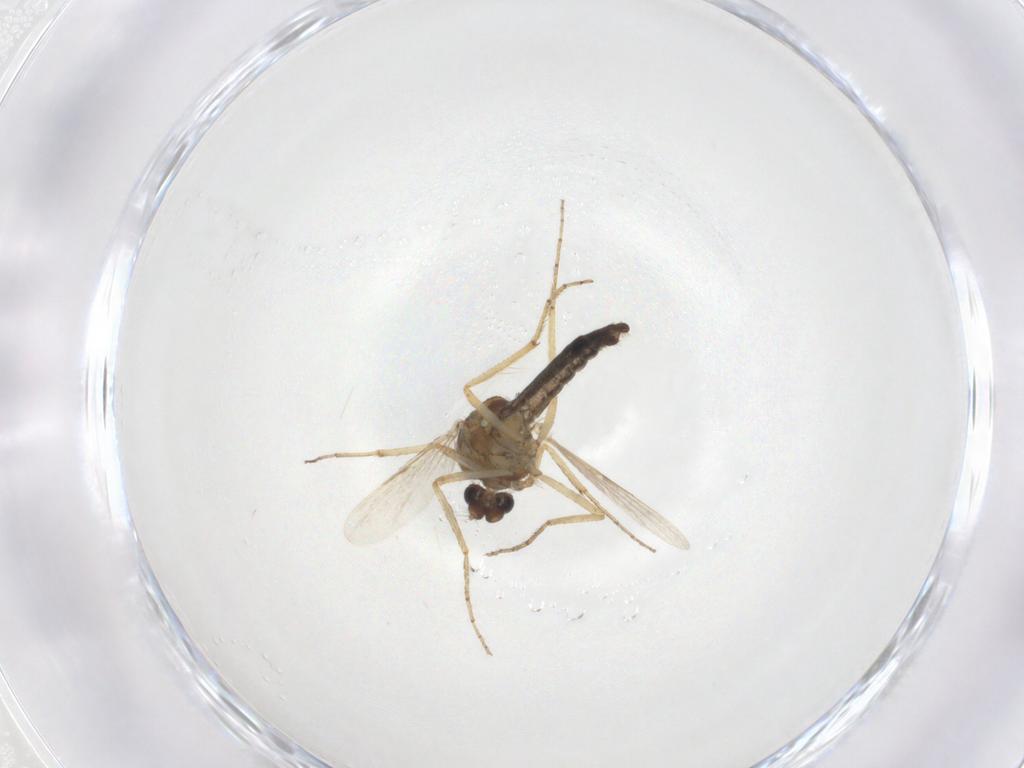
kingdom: Animalia
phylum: Arthropoda
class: Insecta
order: Diptera
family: Ceratopogonidae
